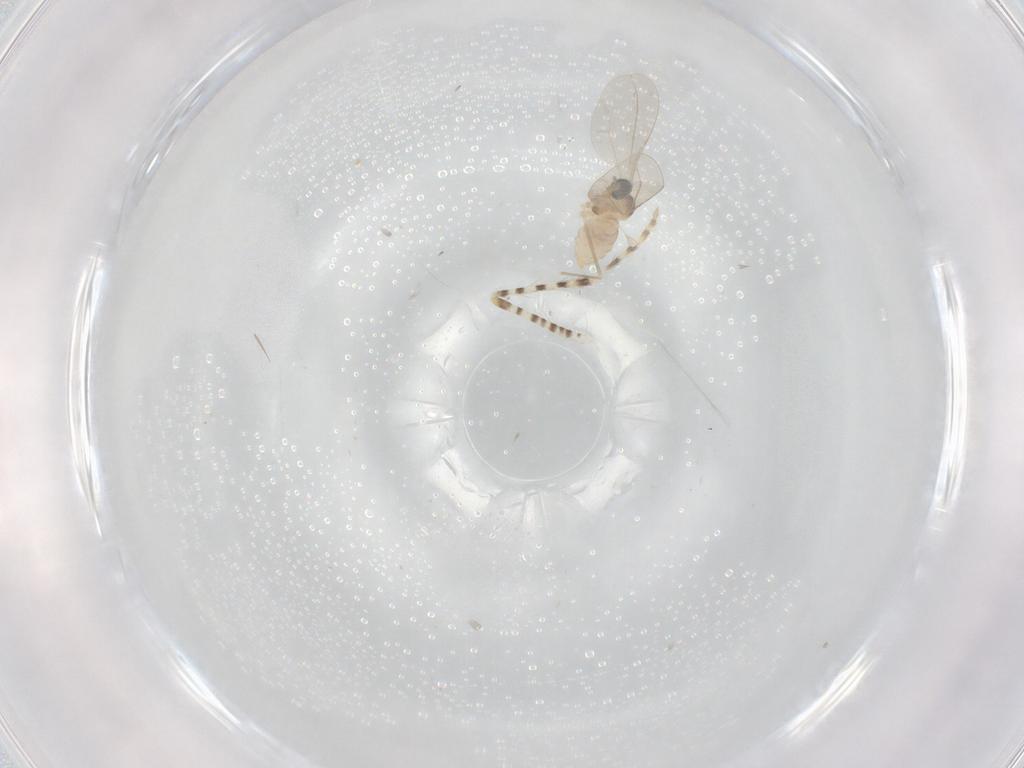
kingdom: Animalia
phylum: Arthropoda
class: Insecta
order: Diptera
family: Cecidomyiidae
